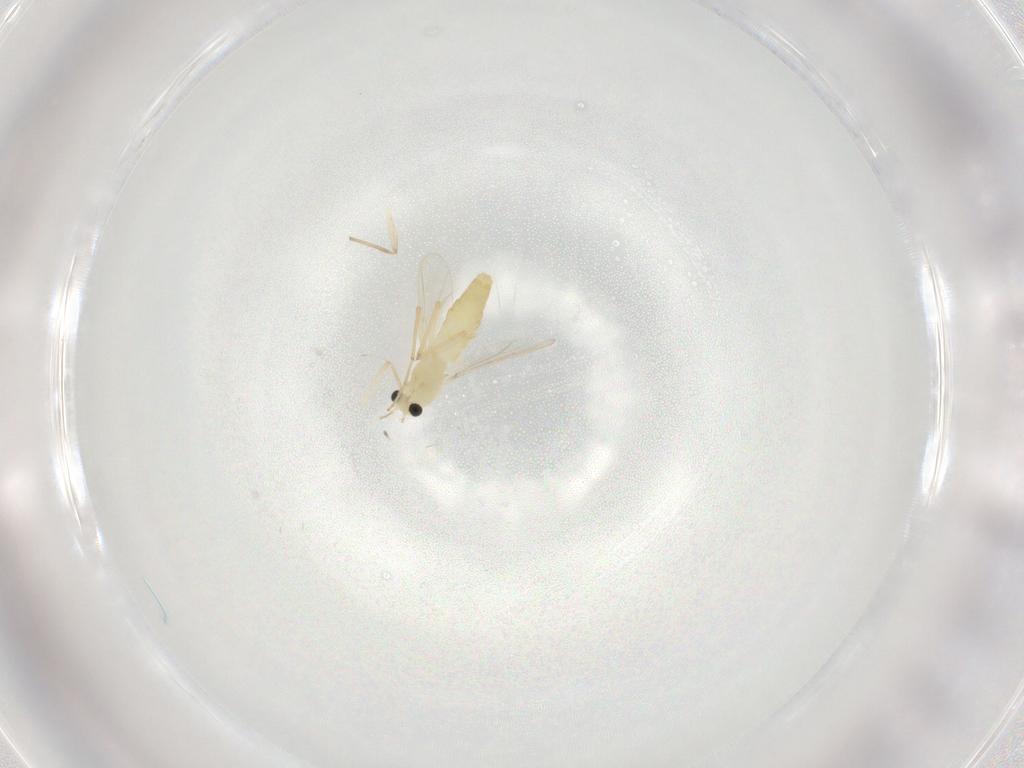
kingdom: Animalia
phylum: Arthropoda
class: Insecta
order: Diptera
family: Chironomidae
